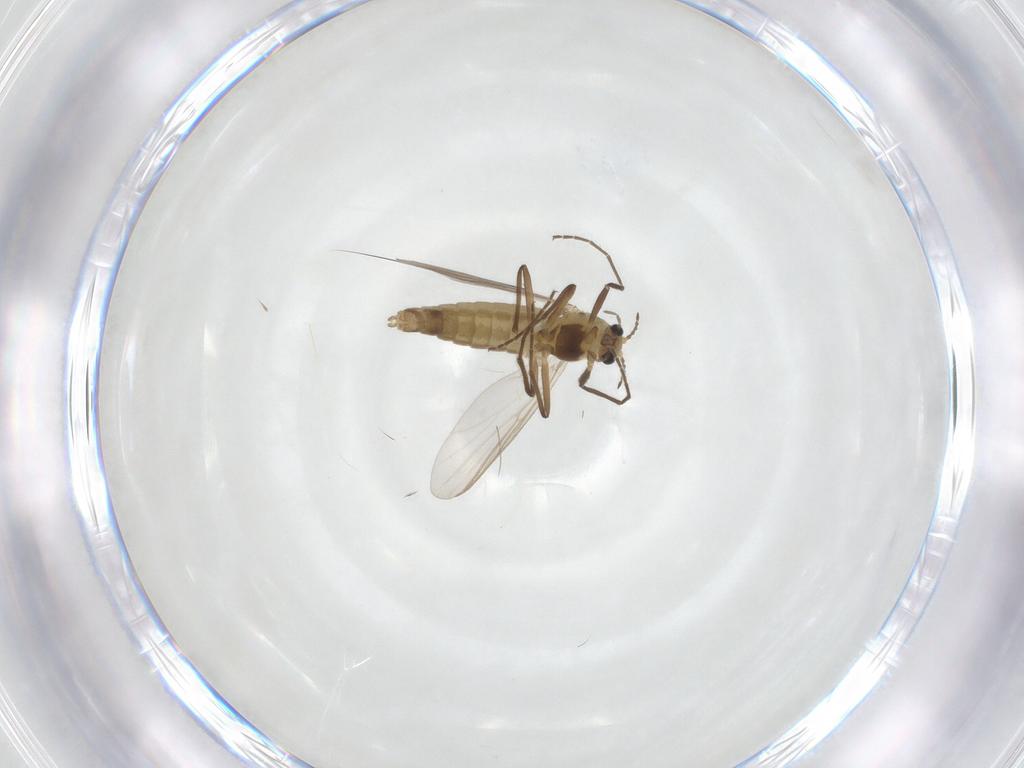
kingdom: Animalia
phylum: Arthropoda
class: Insecta
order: Diptera
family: Chironomidae
